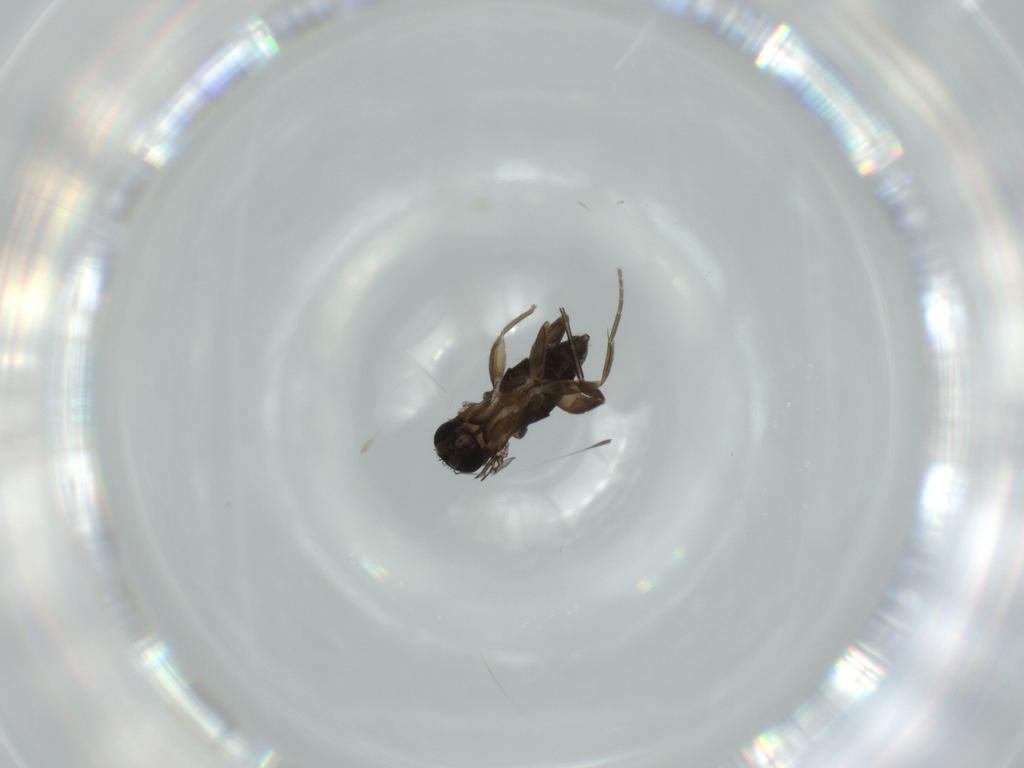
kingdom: Animalia
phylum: Arthropoda
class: Insecta
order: Diptera
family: Phoridae
